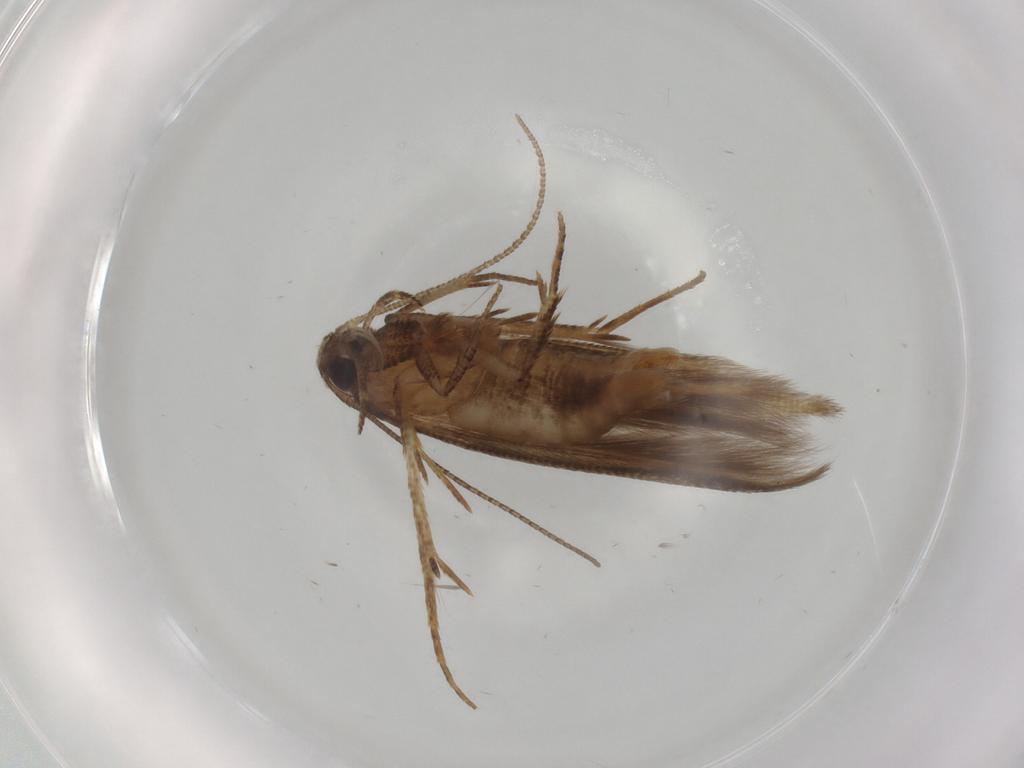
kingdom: Animalia
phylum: Arthropoda
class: Insecta
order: Lepidoptera
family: Cosmopterigidae
